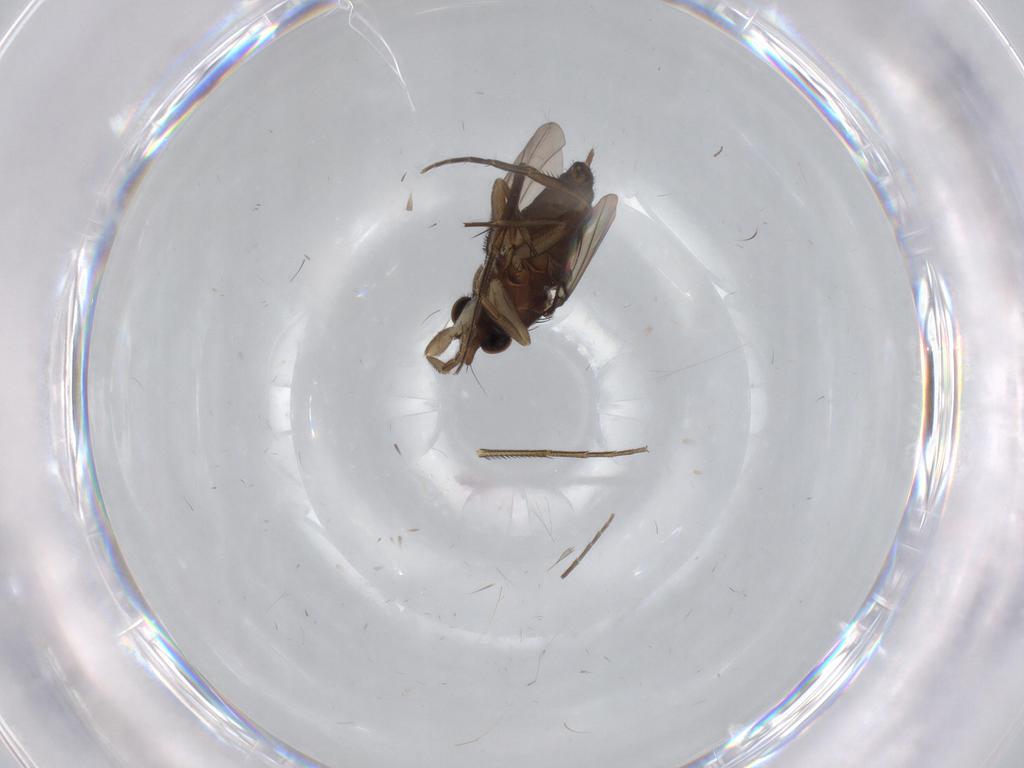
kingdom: Animalia
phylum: Arthropoda
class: Insecta
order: Diptera
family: Phoridae
